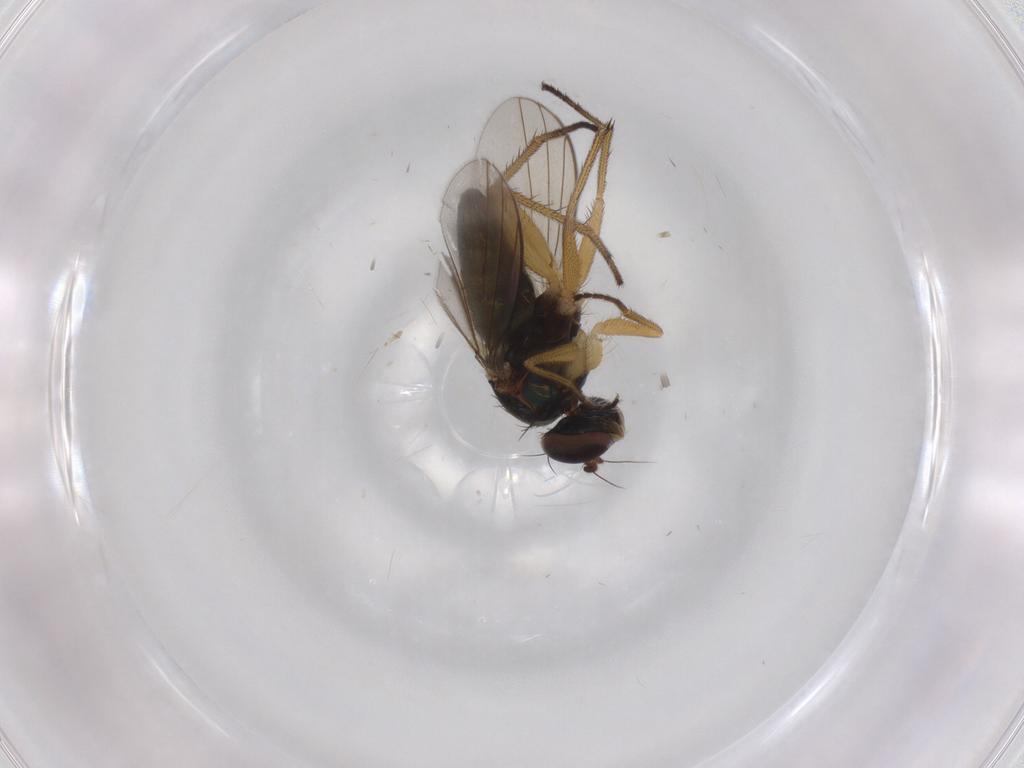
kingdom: Animalia
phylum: Arthropoda
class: Insecta
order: Diptera
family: Dolichopodidae
